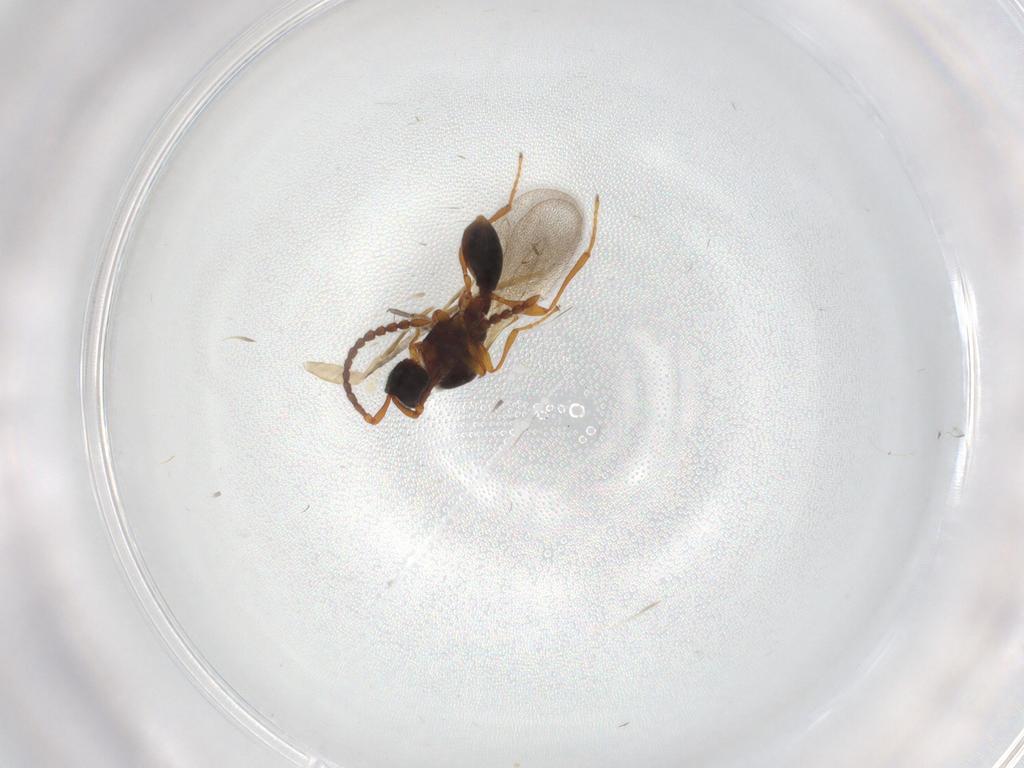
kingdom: Animalia
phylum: Arthropoda
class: Insecta
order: Hymenoptera
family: Diapriidae
